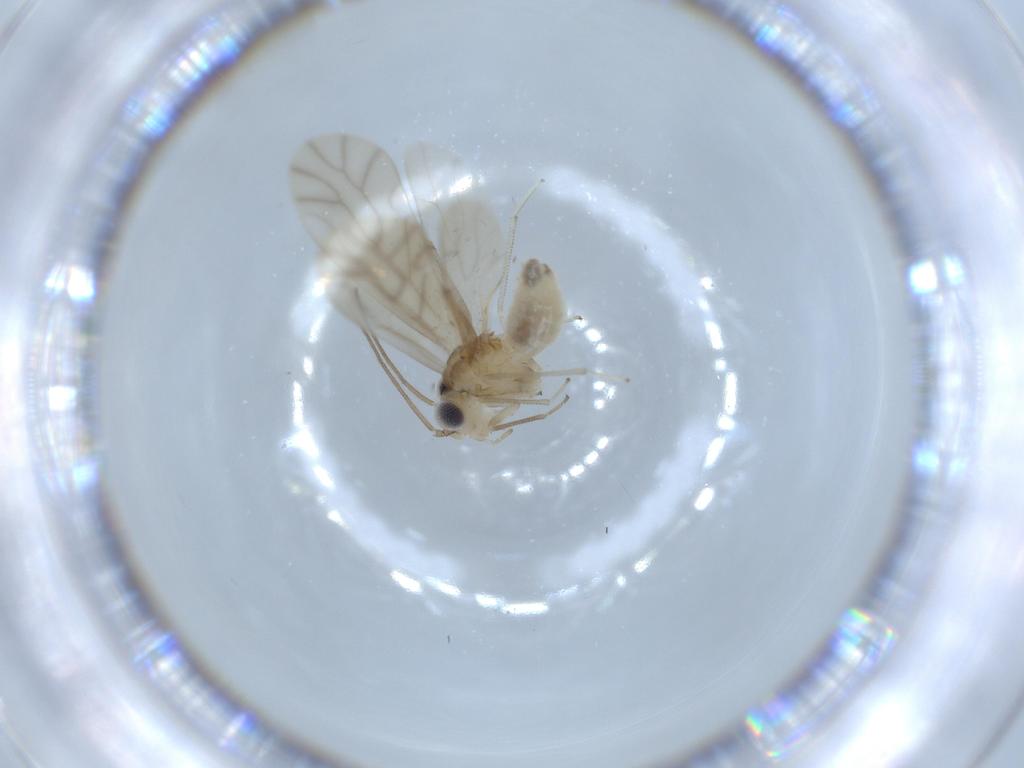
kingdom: Animalia
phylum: Arthropoda
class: Insecta
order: Psocodea
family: Caeciliusidae
